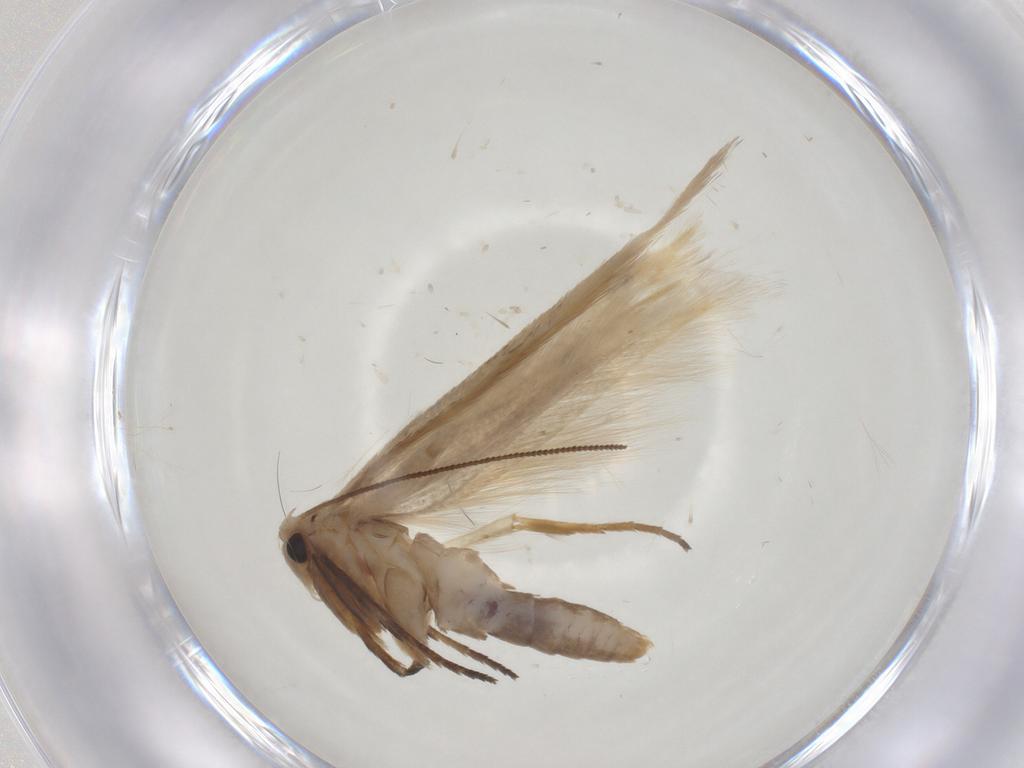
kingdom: Animalia
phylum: Arthropoda
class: Insecta
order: Lepidoptera
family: Gelechiidae
